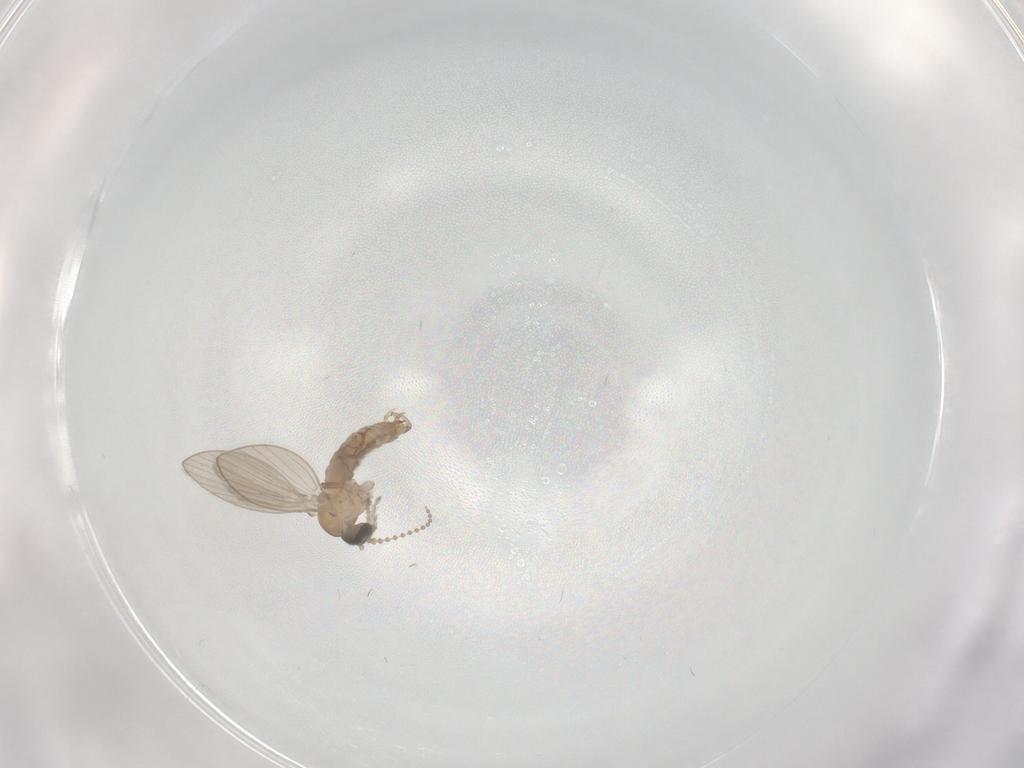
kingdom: Animalia
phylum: Arthropoda
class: Insecta
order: Diptera
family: Psychodidae
